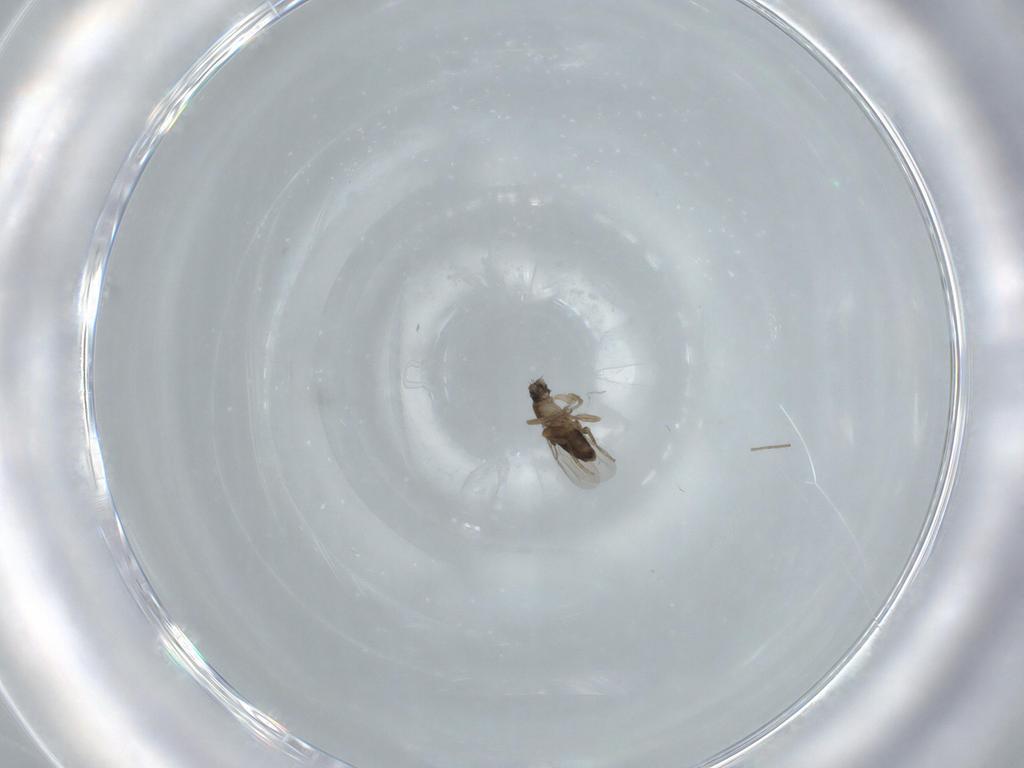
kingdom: Animalia
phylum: Arthropoda
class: Insecta
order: Diptera
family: Phoridae
